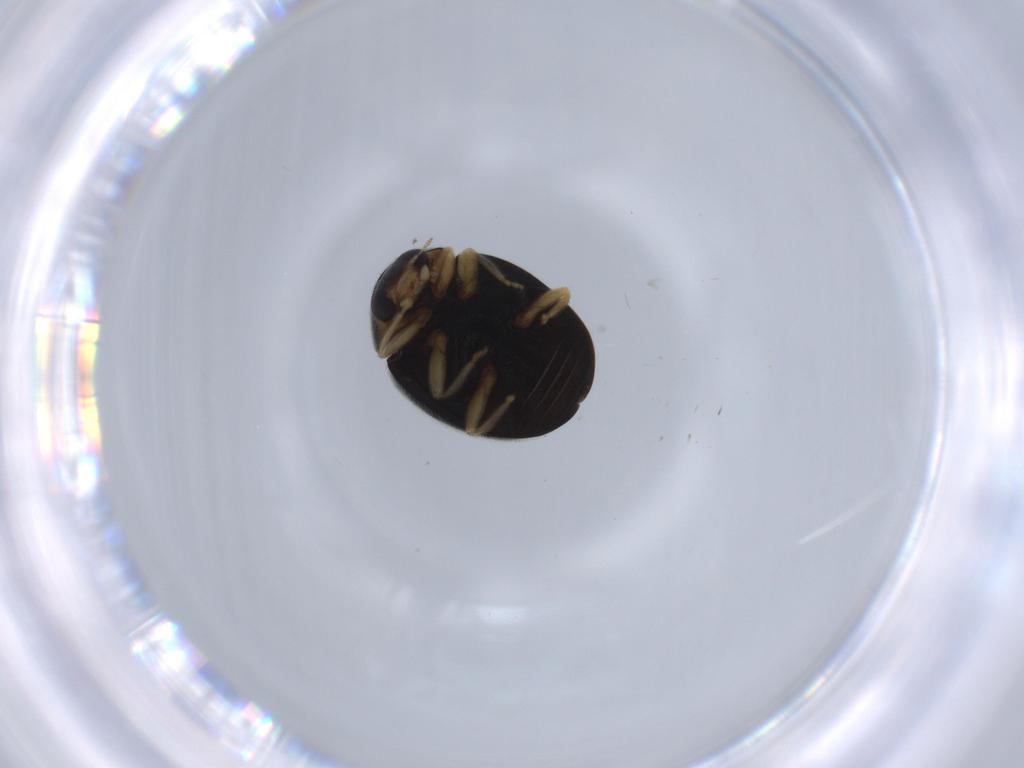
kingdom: Animalia
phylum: Arthropoda
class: Insecta
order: Coleoptera
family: Coccinellidae
